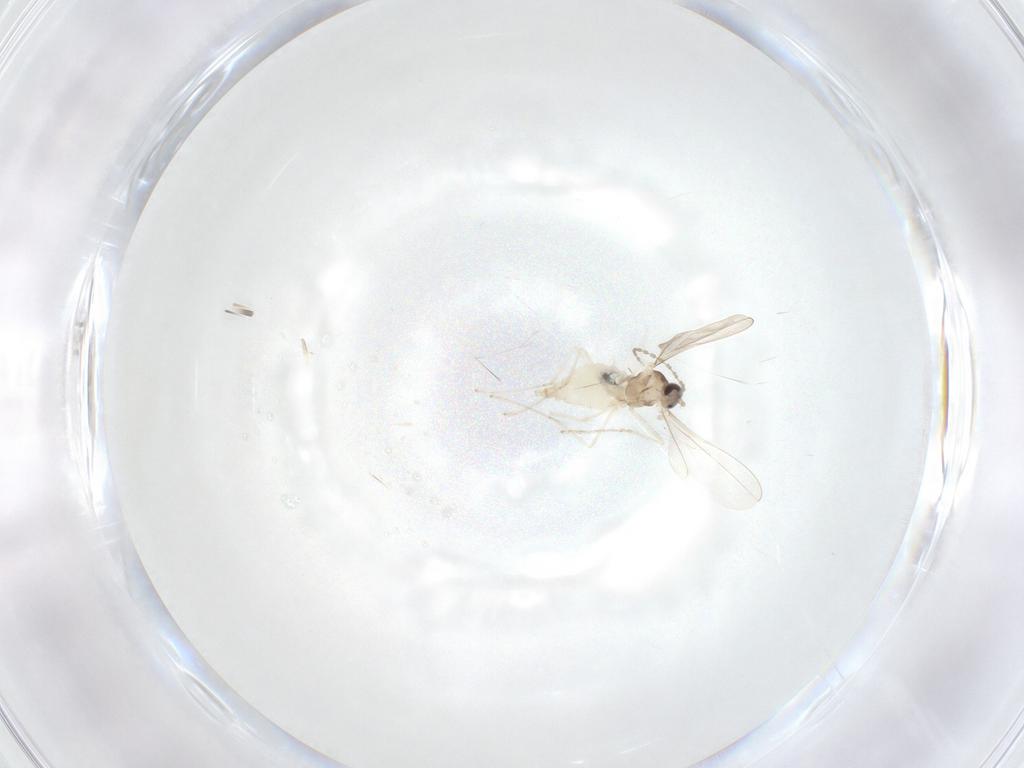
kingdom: Animalia
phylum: Arthropoda
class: Insecta
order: Diptera
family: Cecidomyiidae
